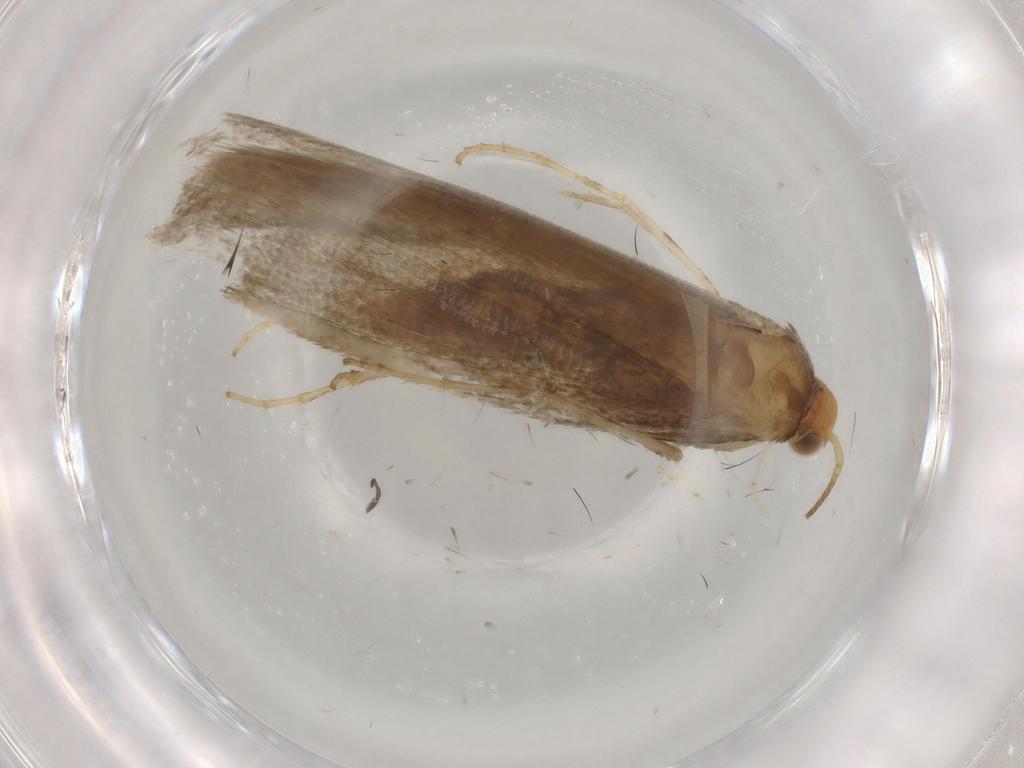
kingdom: Animalia
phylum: Arthropoda
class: Insecta
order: Lepidoptera
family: Argyresthiidae
